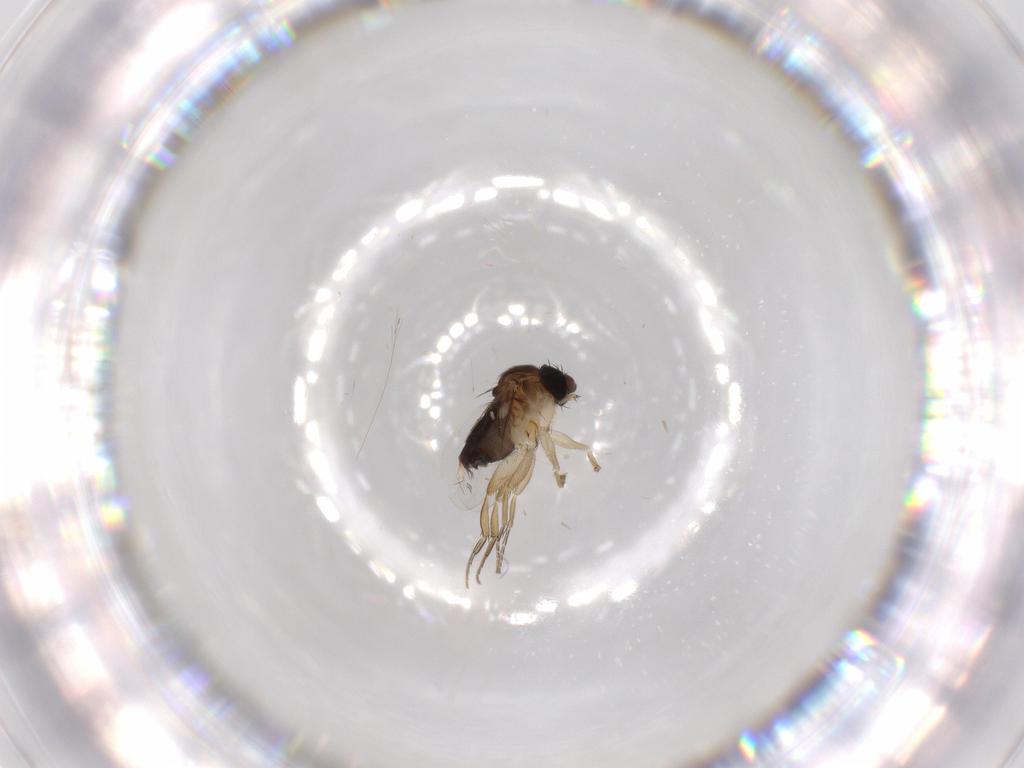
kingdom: Animalia
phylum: Arthropoda
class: Insecta
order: Diptera
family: Phoridae
